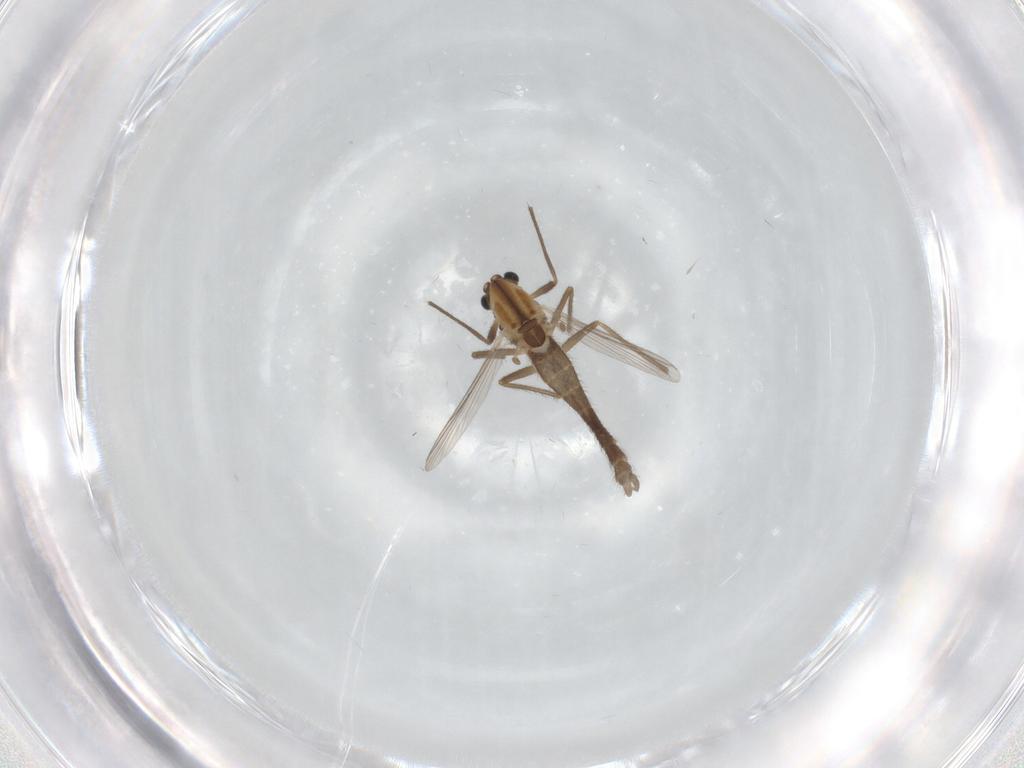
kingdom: Animalia
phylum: Arthropoda
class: Insecta
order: Diptera
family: Chironomidae
